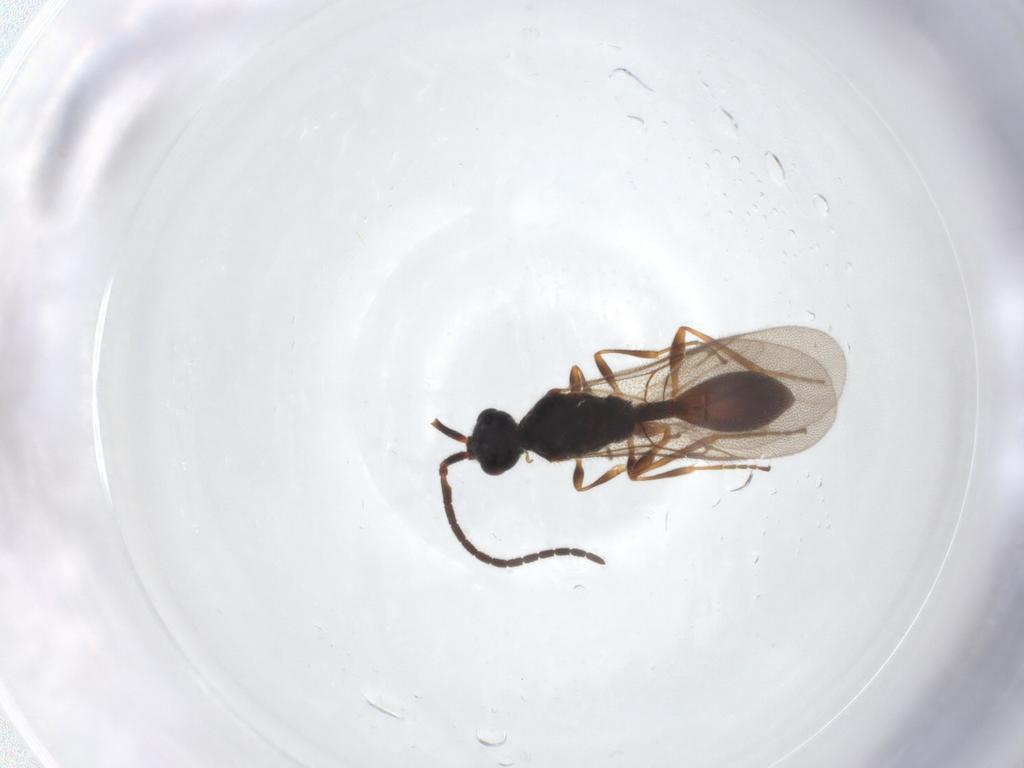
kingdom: Animalia
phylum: Arthropoda
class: Insecta
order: Hymenoptera
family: Diapriidae
